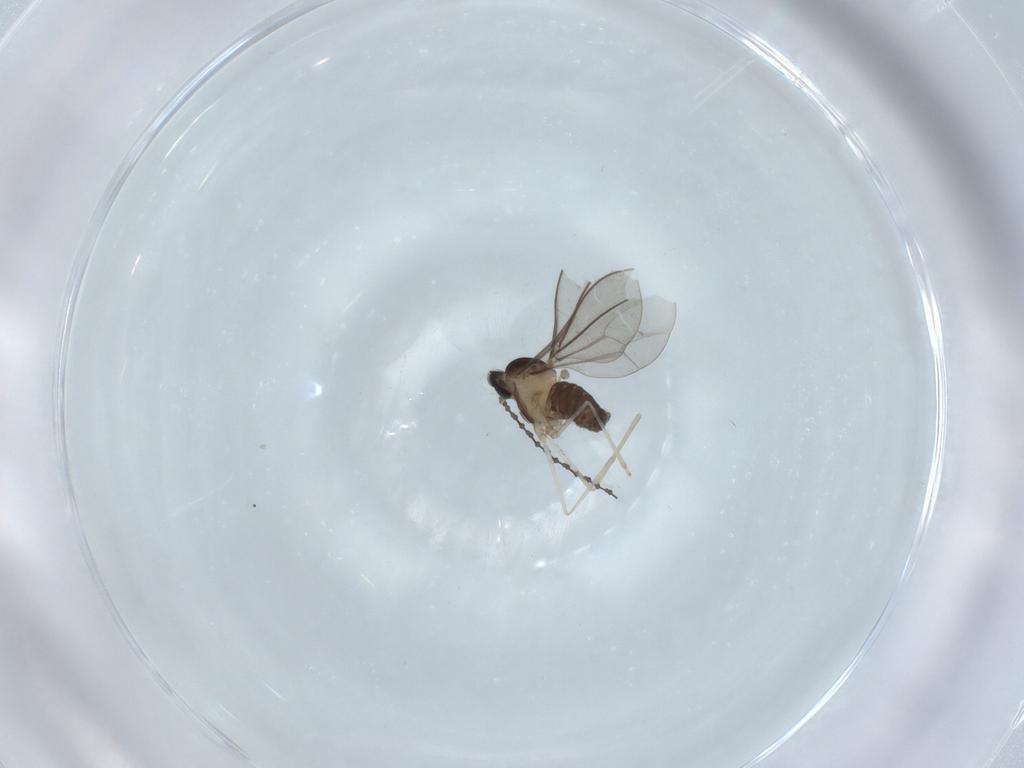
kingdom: Animalia
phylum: Arthropoda
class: Insecta
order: Diptera
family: Cecidomyiidae
